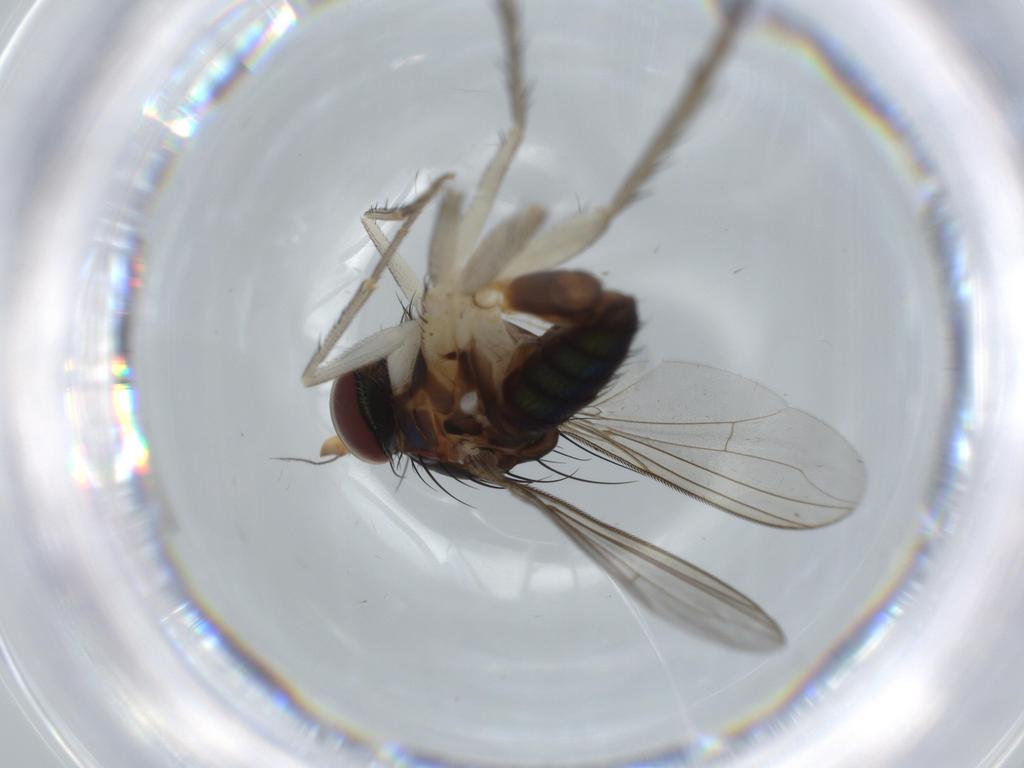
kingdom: Animalia
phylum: Arthropoda
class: Insecta
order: Diptera
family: Dolichopodidae
